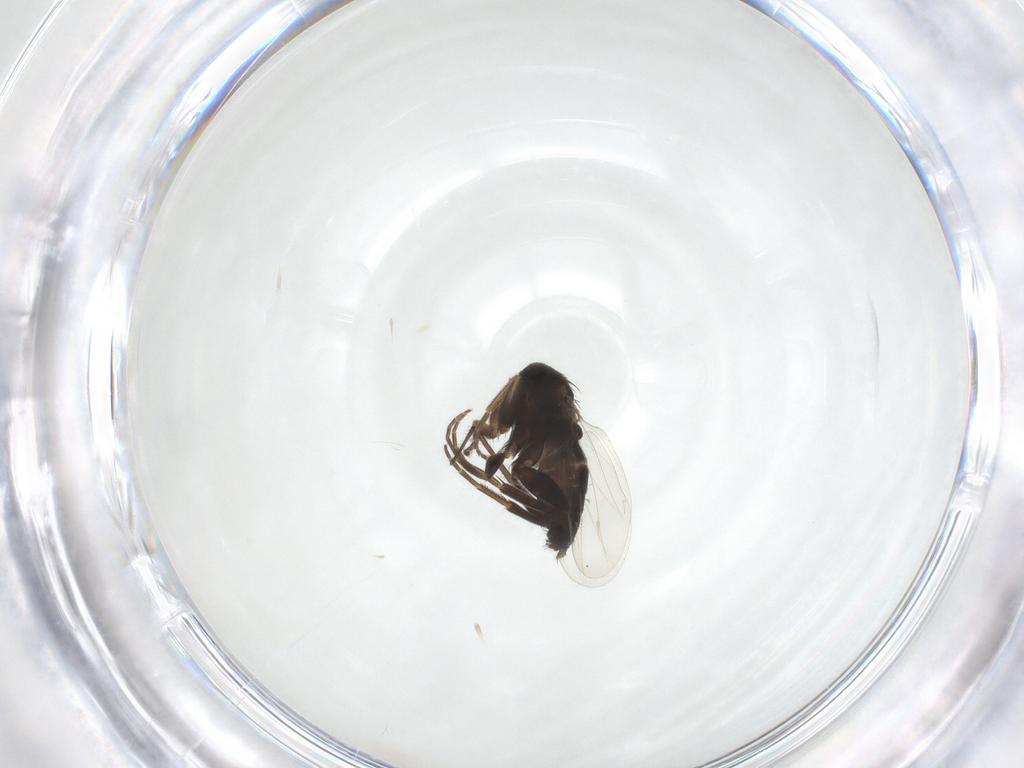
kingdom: Animalia
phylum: Arthropoda
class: Insecta
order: Diptera
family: Phoridae
